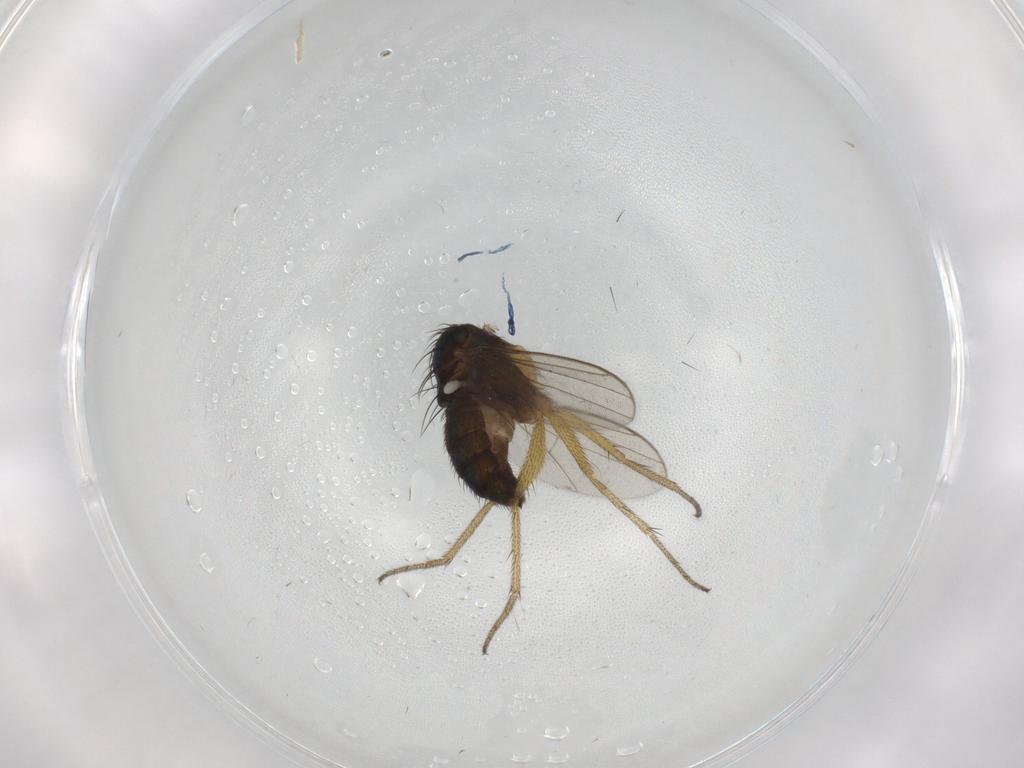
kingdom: Animalia
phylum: Arthropoda
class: Insecta
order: Diptera
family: Dolichopodidae
